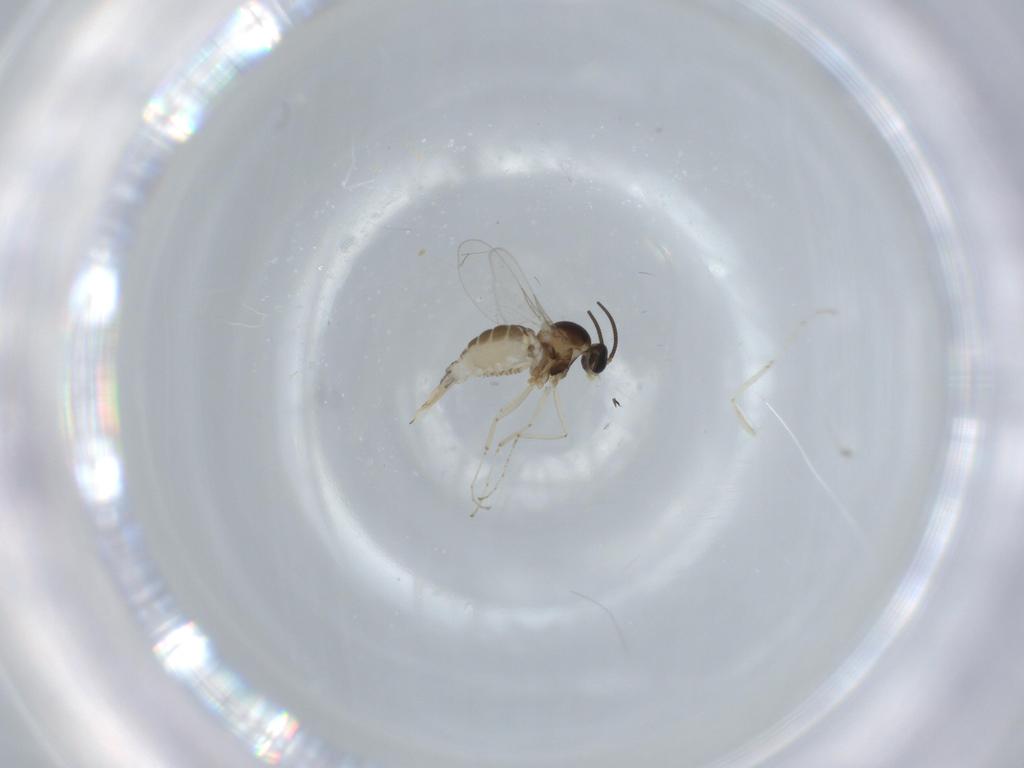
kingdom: Animalia
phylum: Arthropoda
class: Insecta
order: Diptera
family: Cecidomyiidae
